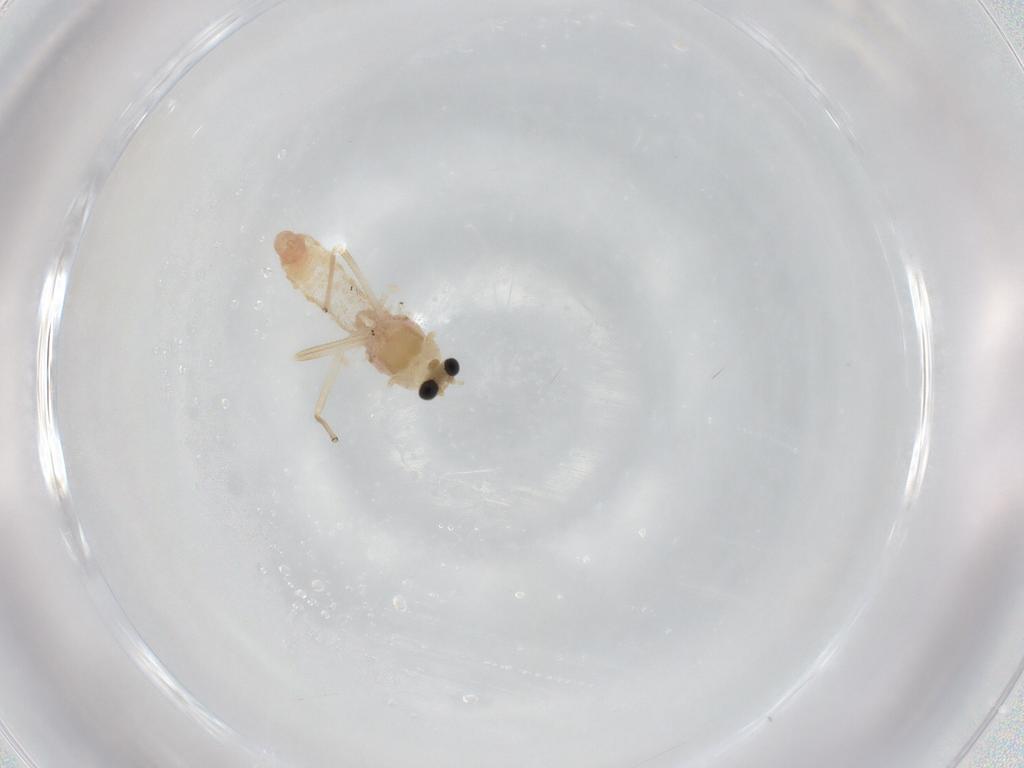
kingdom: Animalia
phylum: Arthropoda
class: Insecta
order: Diptera
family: Chironomidae
